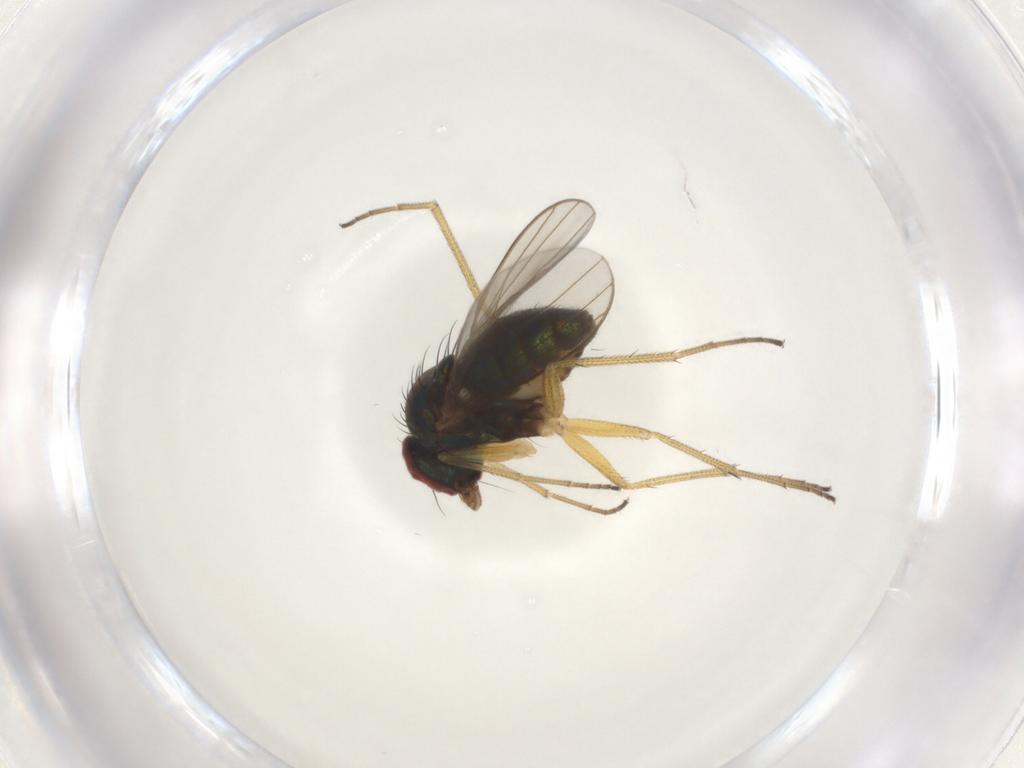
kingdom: Animalia
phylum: Arthropoda
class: Insecta
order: Diptera
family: Dolichopodidae
